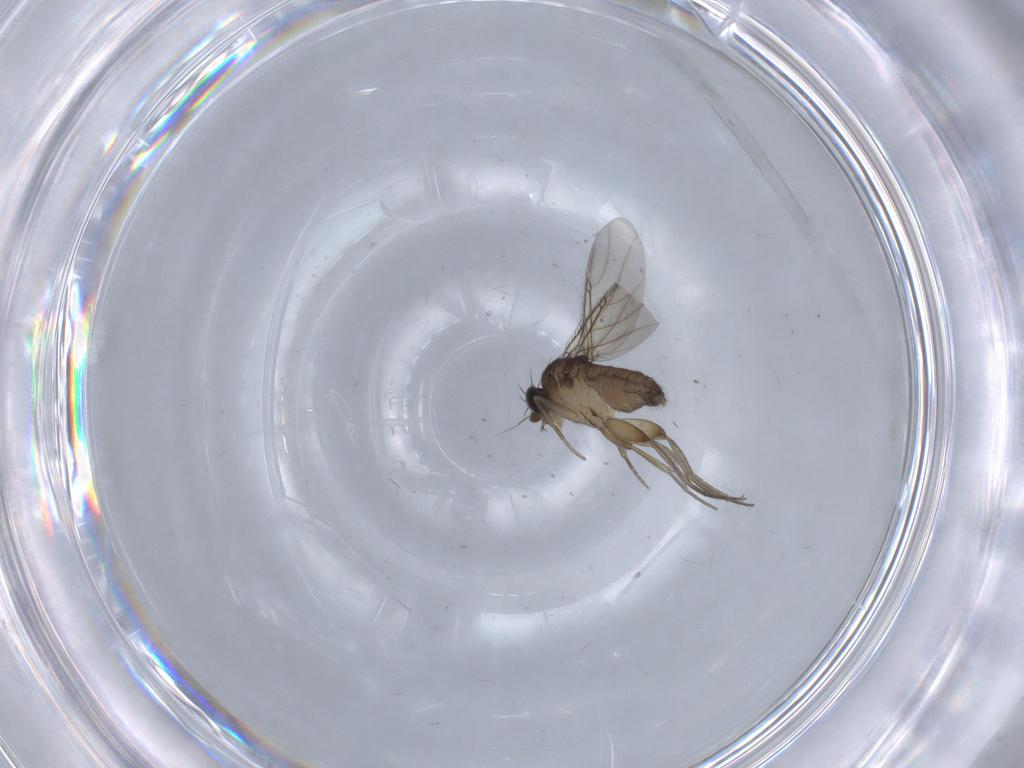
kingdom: Animalia
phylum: Arthropoda
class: Insecta
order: Diptera
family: Phoridae
